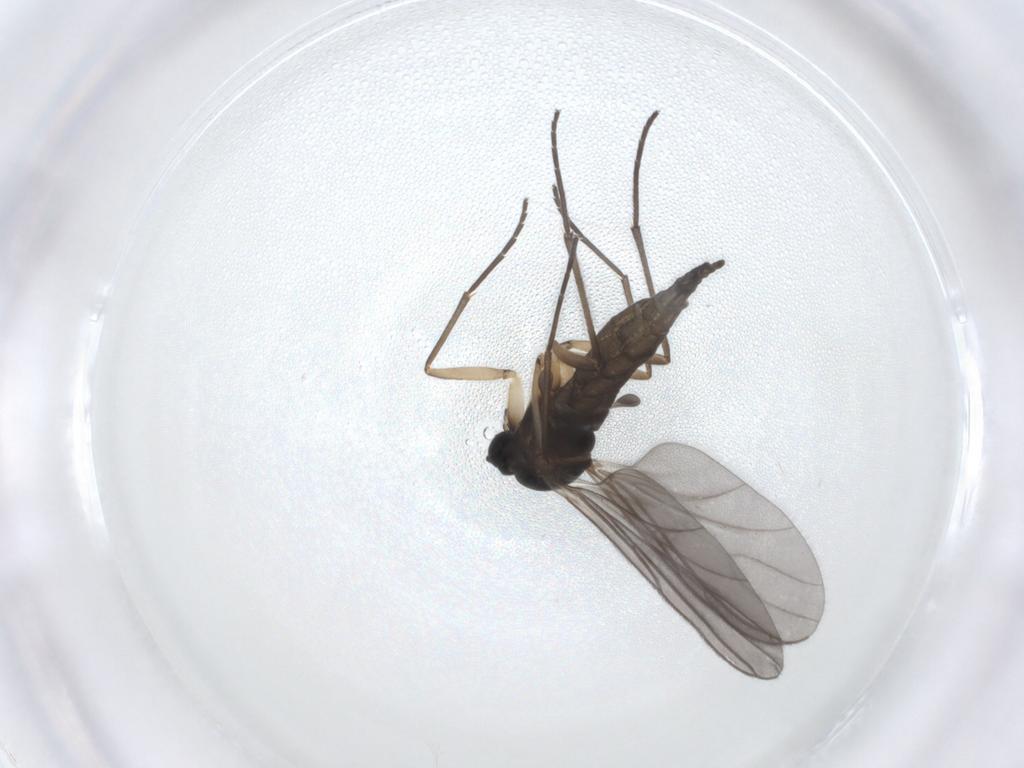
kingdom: Animalia
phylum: Arthropoda
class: Insecta
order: Diptera
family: Sciaridae
